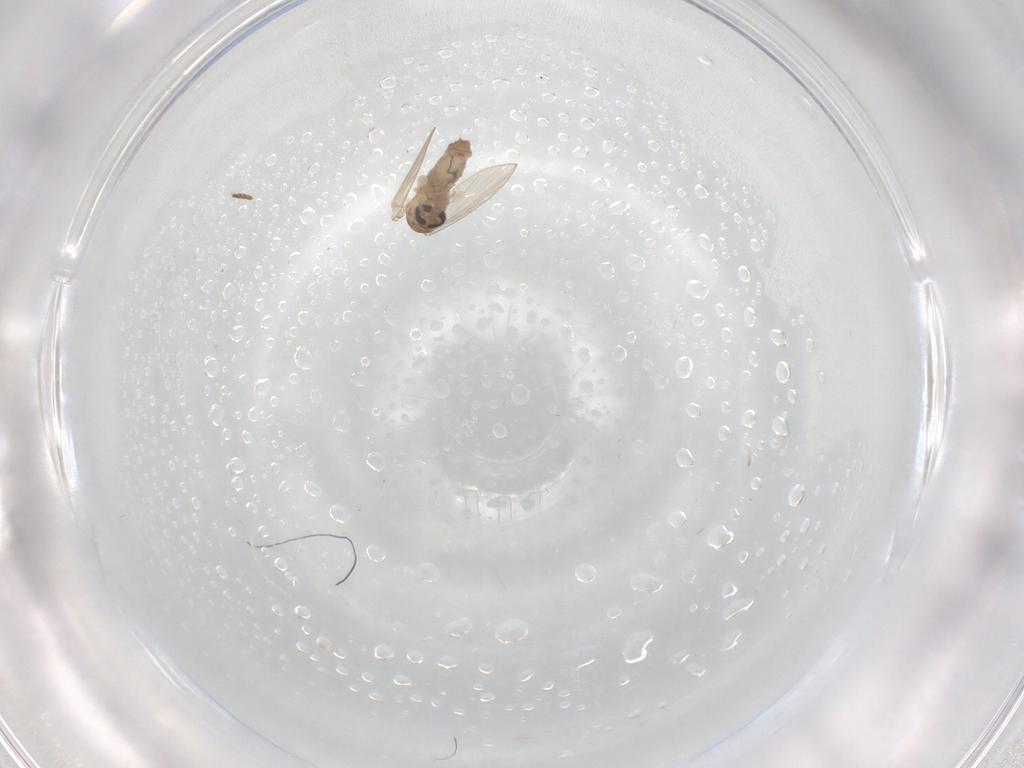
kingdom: Animalia
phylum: Arthropoda
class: Insecta
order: Diptera
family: Sphaeroceridae
